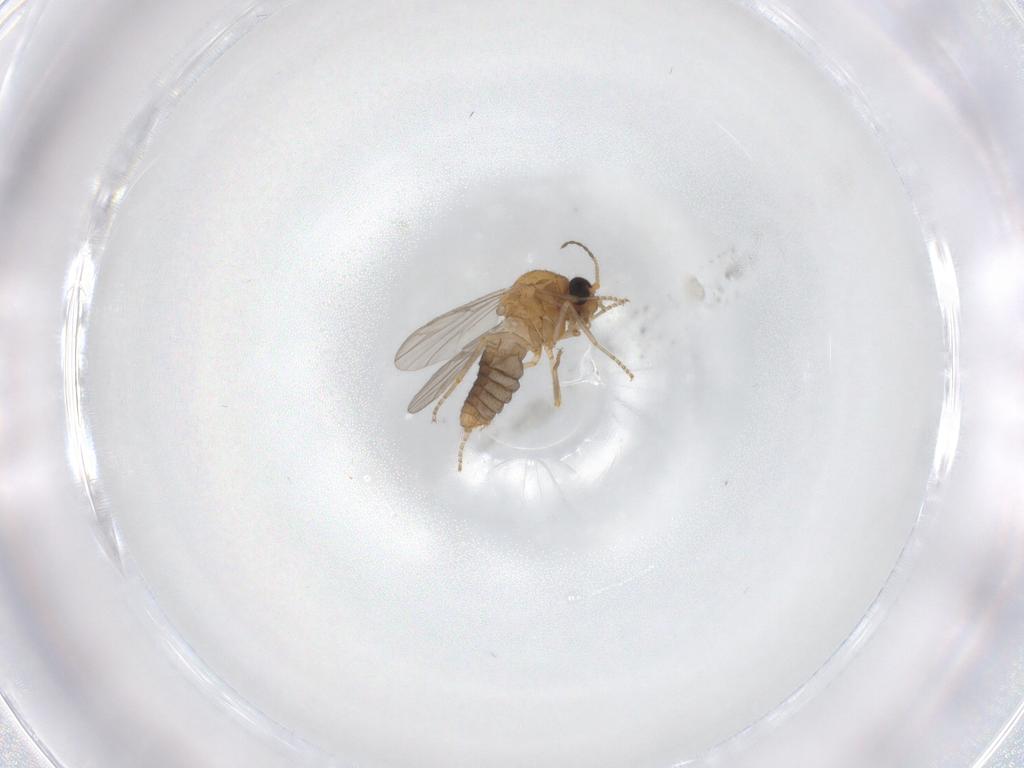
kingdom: Animalia
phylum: Arthropoda
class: Insecta
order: Diptera
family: Ceratopogonidae
